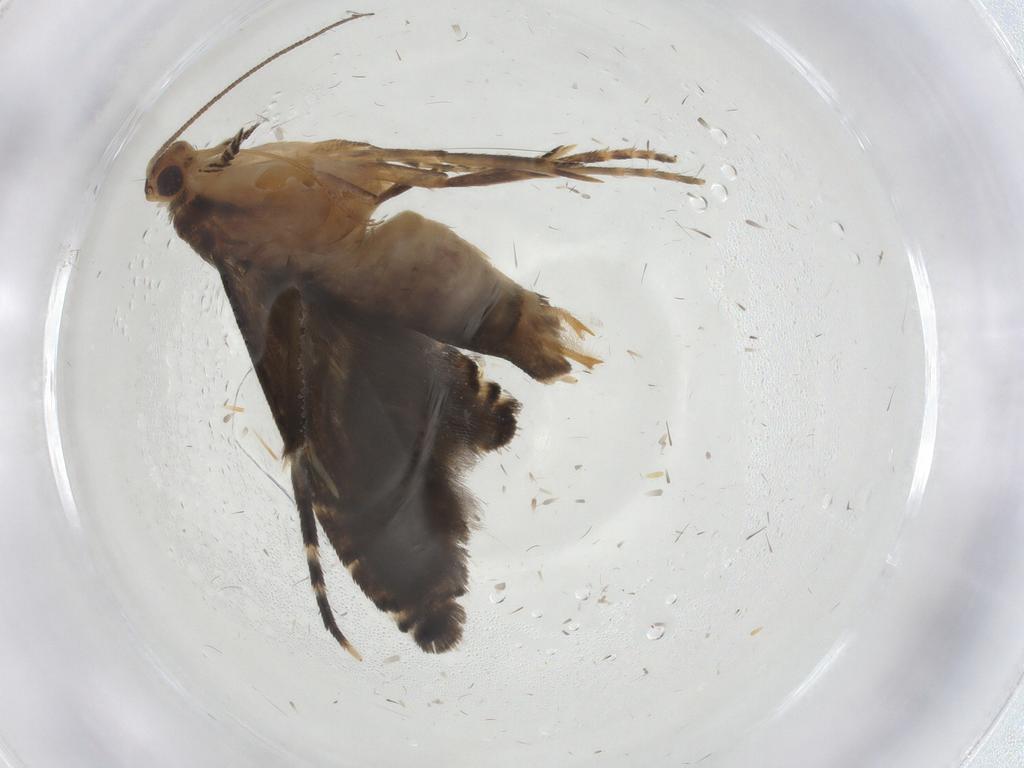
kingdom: Animalia
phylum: Arthropoda
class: Insecta
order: Lepidoptera
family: Glyphipterigidae
